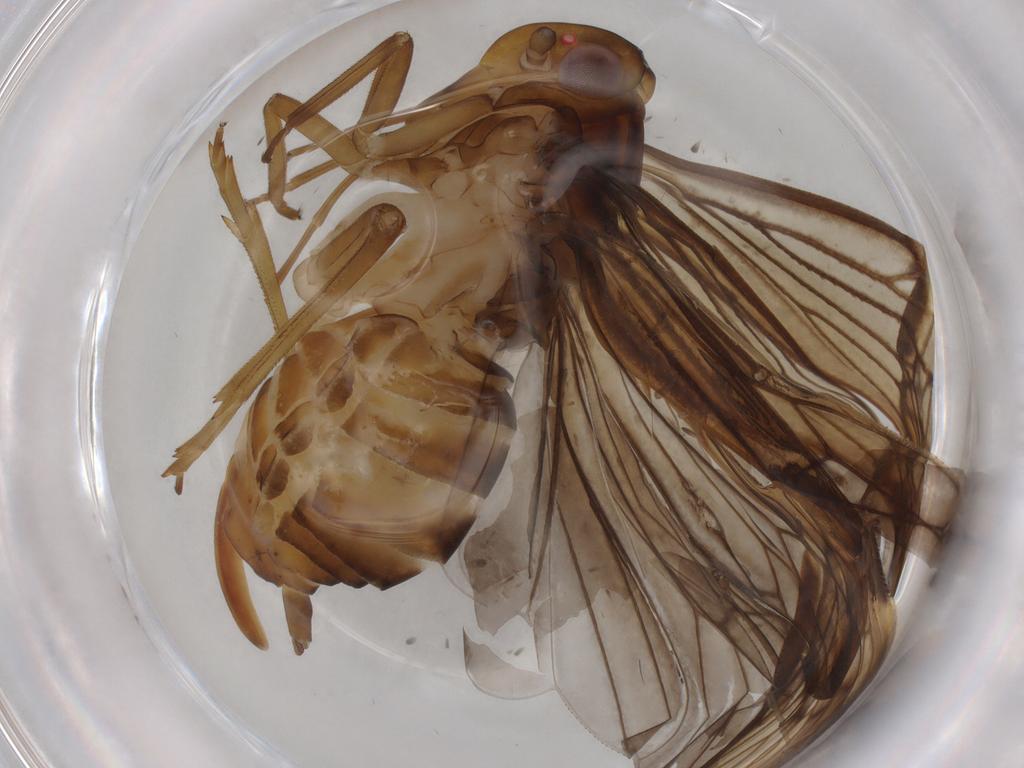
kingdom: Animalia
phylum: Arthropoda
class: Insecta
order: Hemiptera
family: Cixiidae
